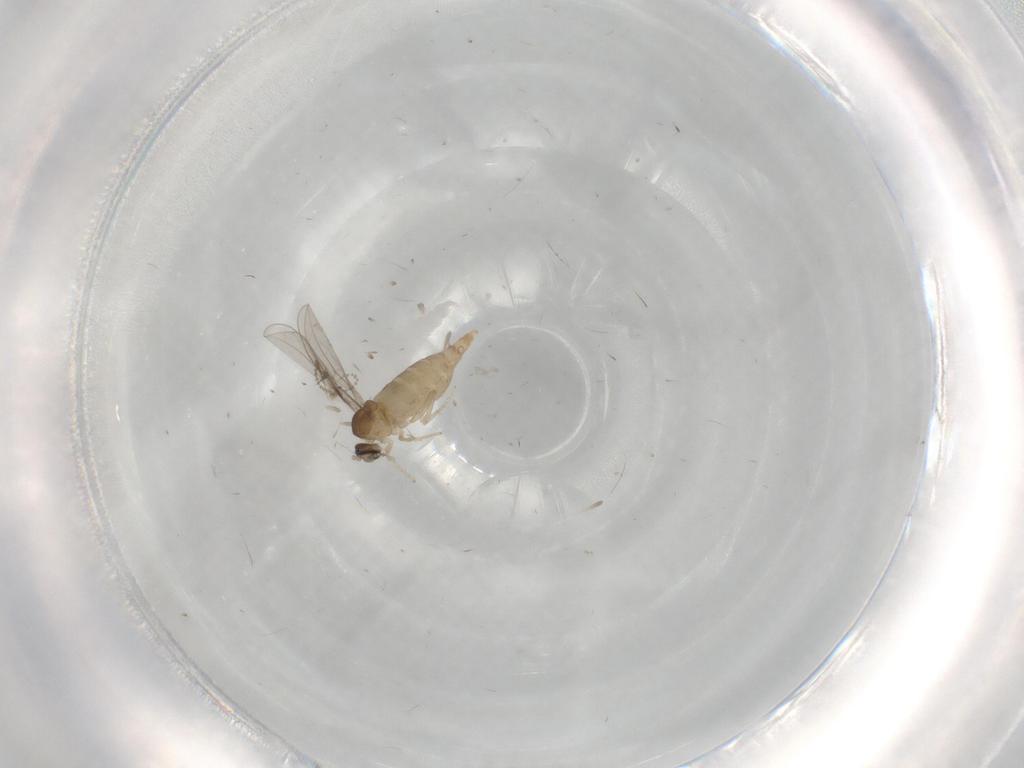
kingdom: Animalia
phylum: Arthropoda
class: Insecta
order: Diptera
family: Cecidomyiidae
